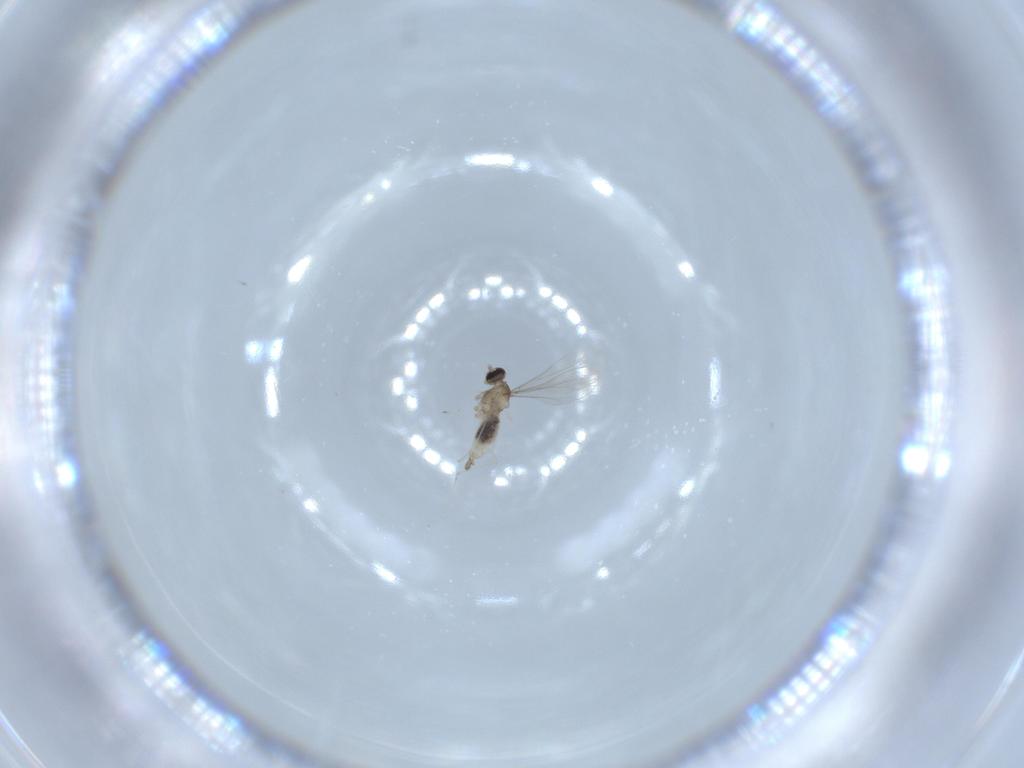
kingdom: Animalia
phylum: Arthropoda
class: Insecta
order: Diptera
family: Cecidomyiidae
